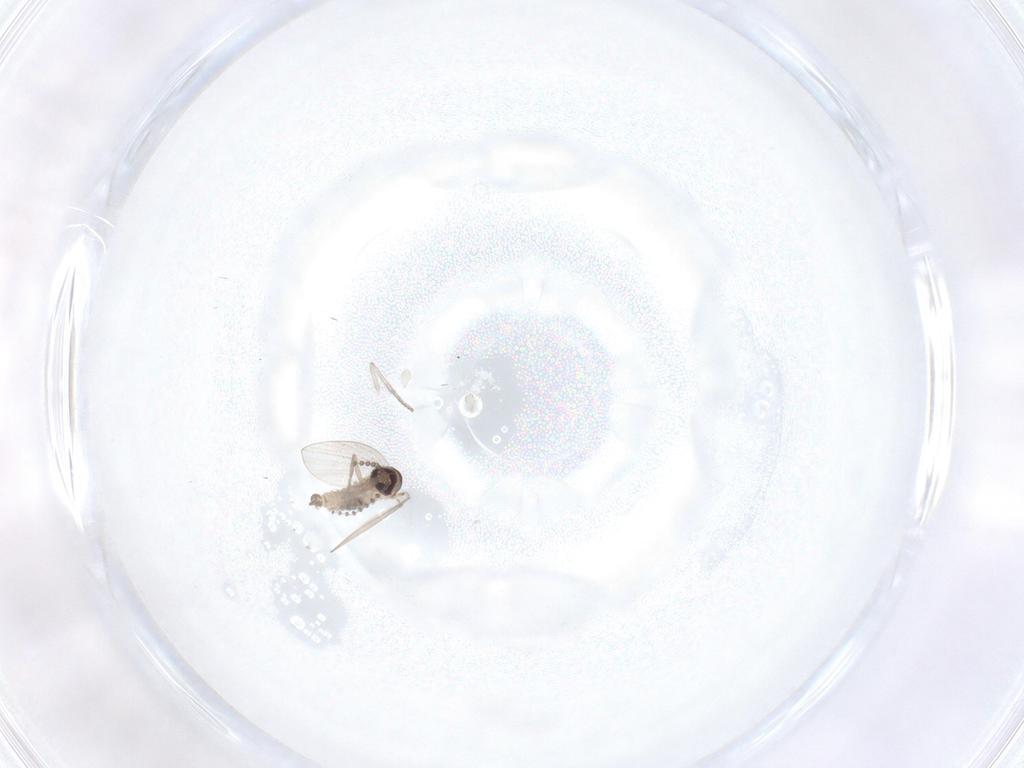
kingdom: Animalia
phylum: Arthropoda
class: Insecta
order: Diptera
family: Psychodidae
